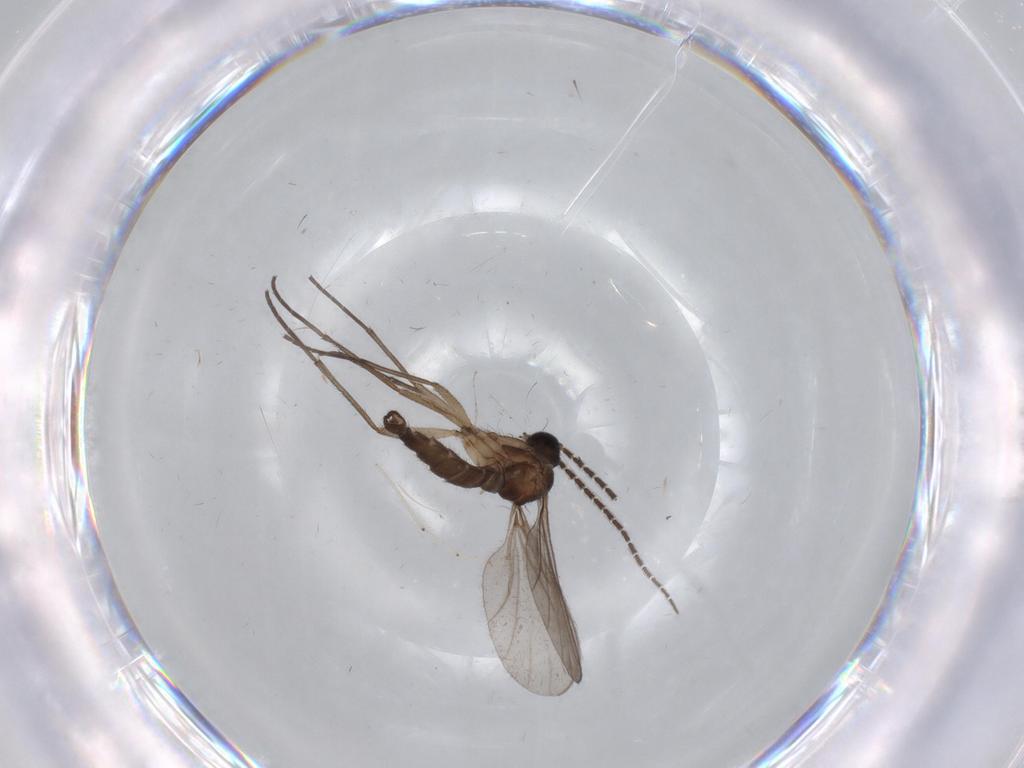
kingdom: Animalia
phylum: Arthropoda
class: Insecta
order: Diptera
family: Sciaridae
